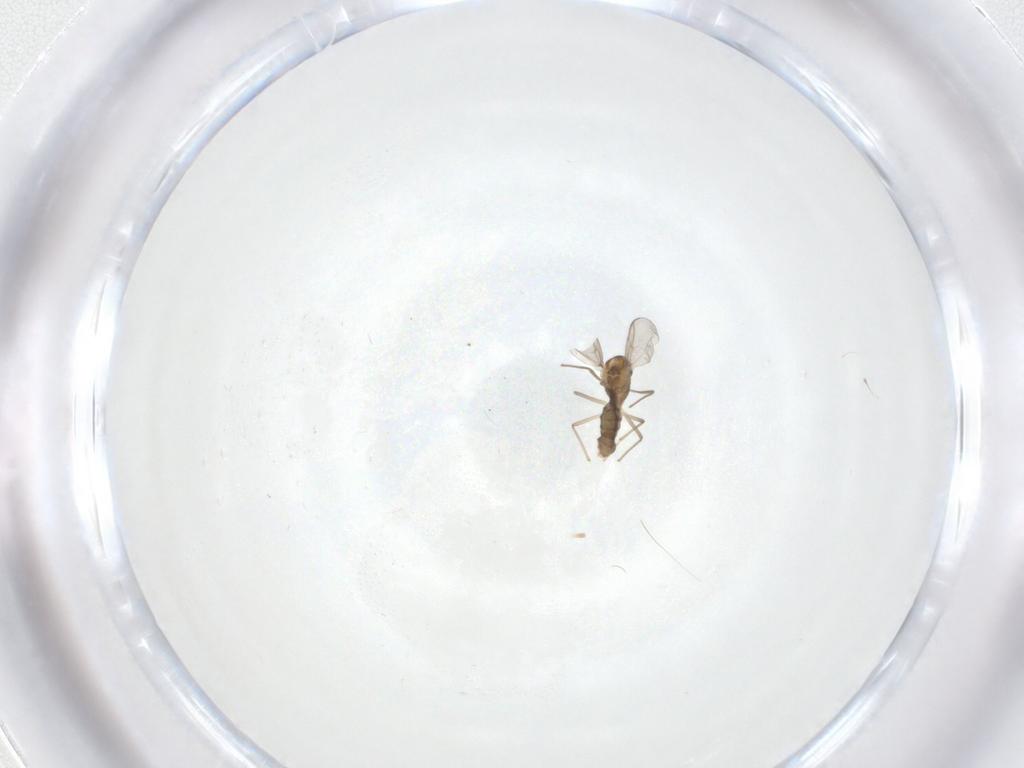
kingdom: Animalia
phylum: Arthropoda
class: Insecta
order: Diptera
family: Dolichopodidae
